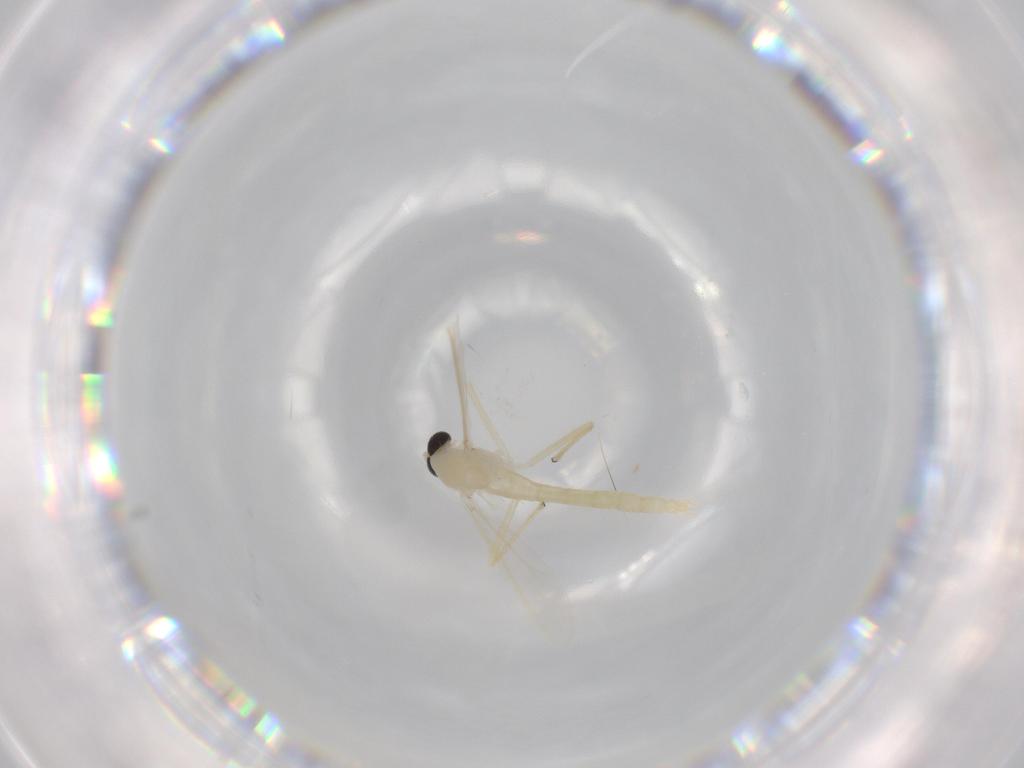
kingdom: Animalia
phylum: Arthropoda
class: Insecta
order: Diptera
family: Chironomidae
